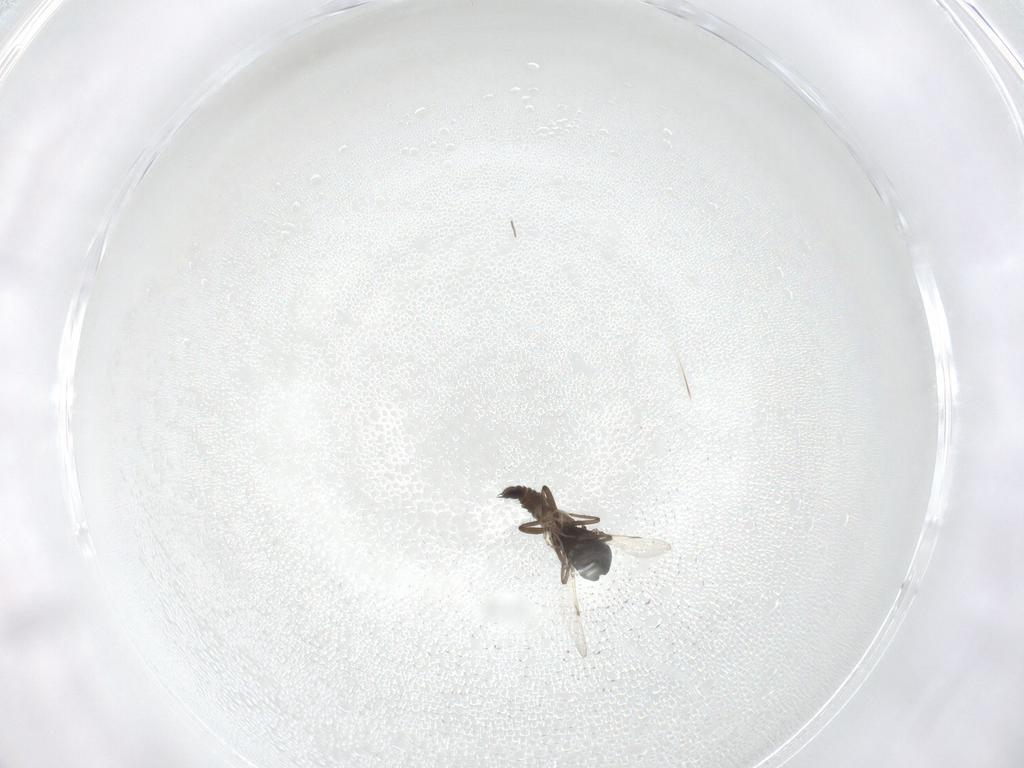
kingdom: Animalia
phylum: Arthropoda
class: Insecta
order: Diptera
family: Ceratopogonidae
